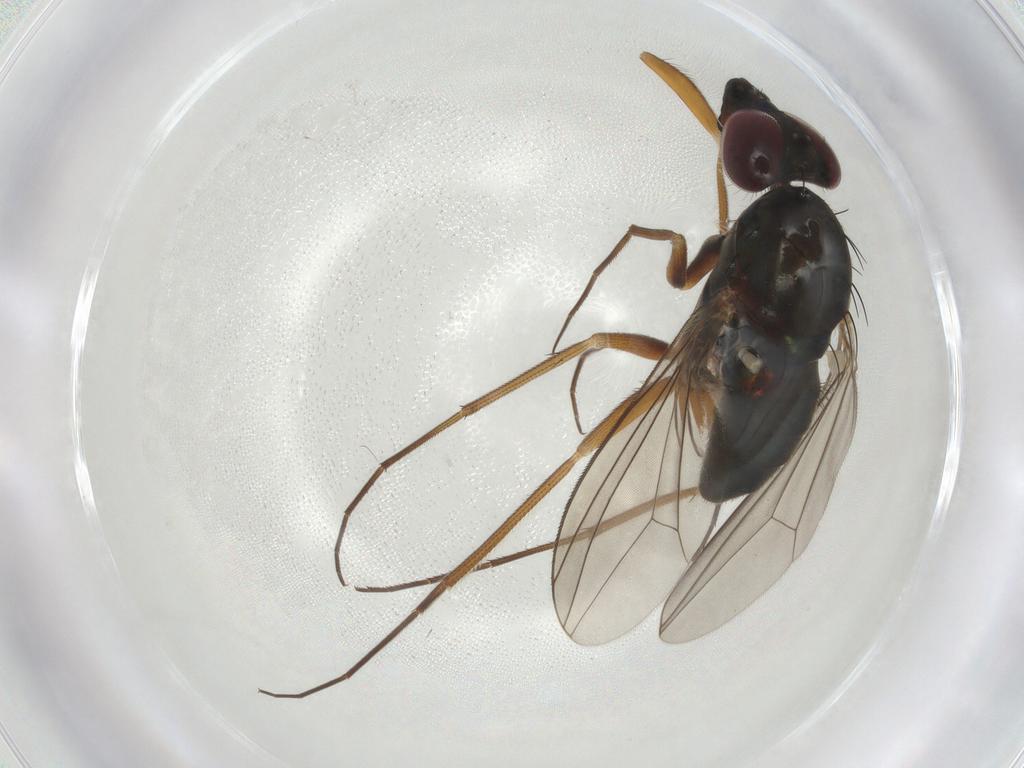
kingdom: Animalia
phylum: Arthropoda
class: Insecta
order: Diptera
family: Dolichopodidae
